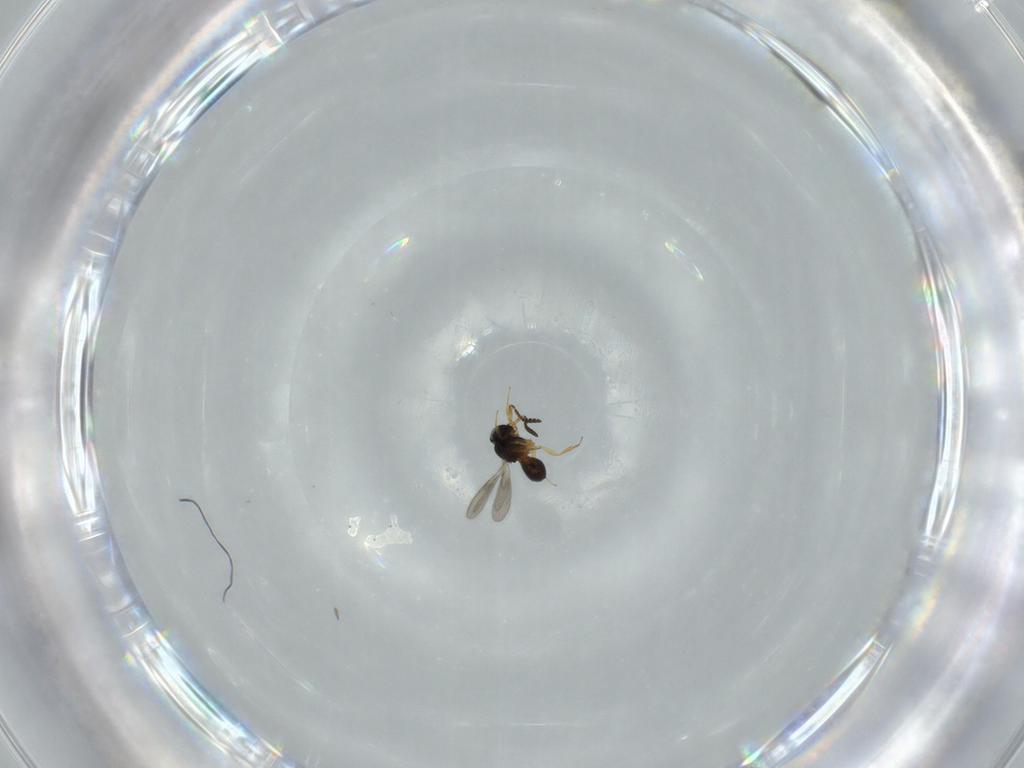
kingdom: Animalia
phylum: Arthropoda
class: Insecta
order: Hymenoptera
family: Scelionidae
